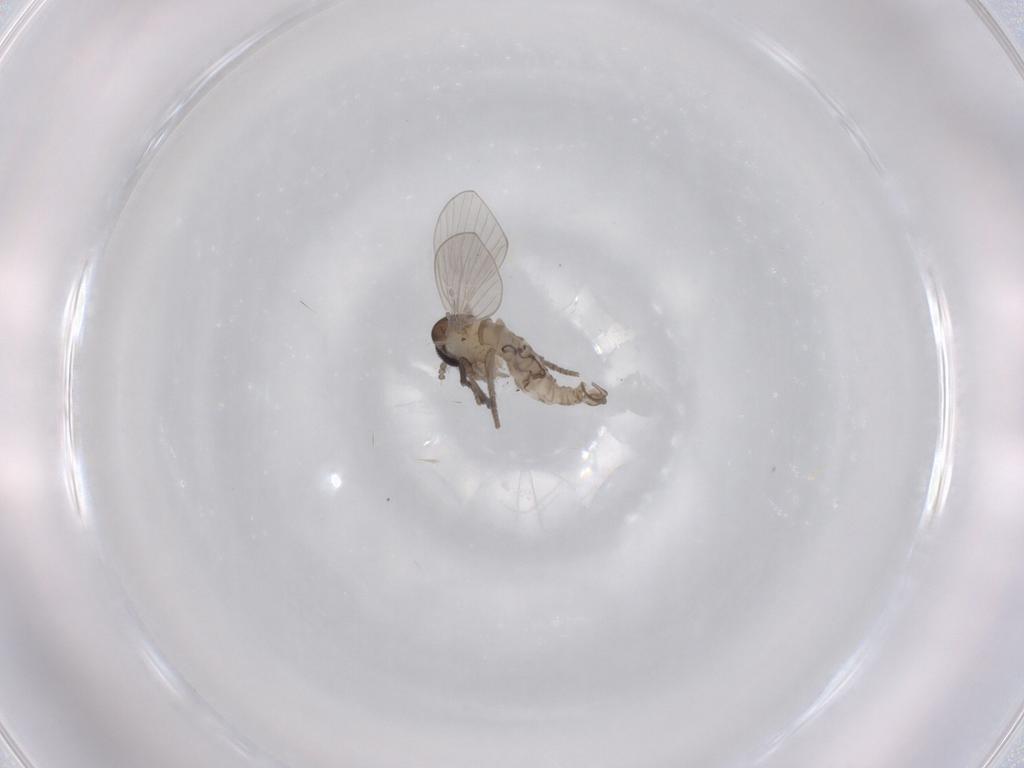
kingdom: Animalia
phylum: Arthropoda
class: Insecta
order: Diptera
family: Psychodidae
